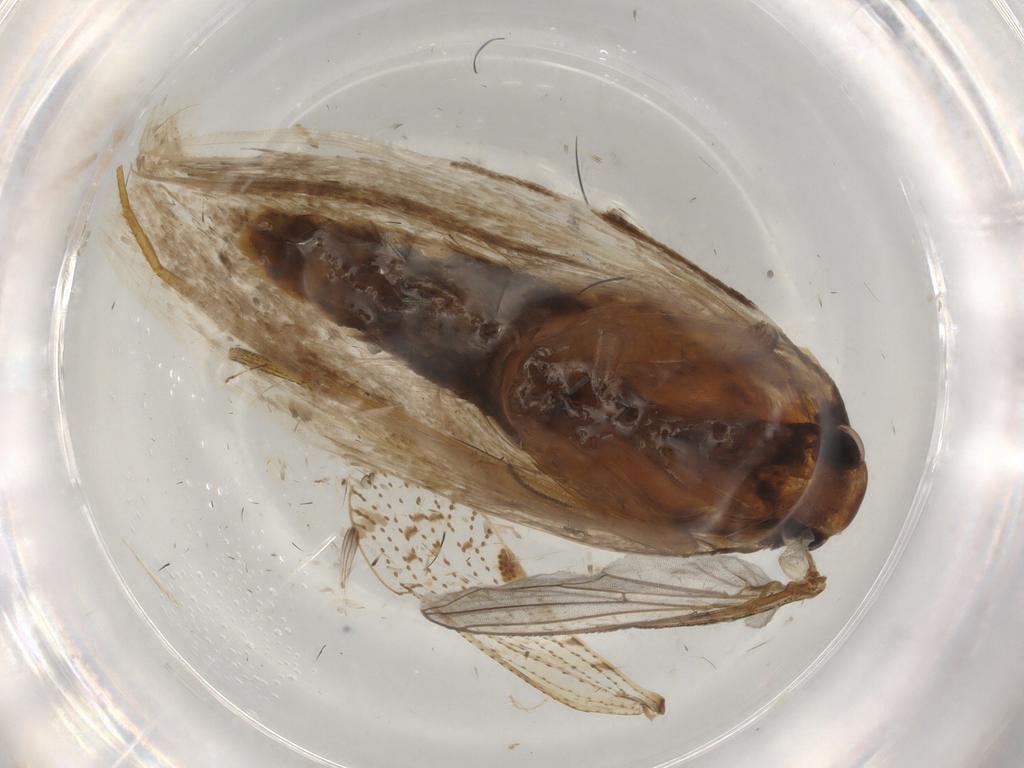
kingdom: Animalia
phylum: Arthropoda
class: Insecta
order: Lepidoptera
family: Lecithoceridae
